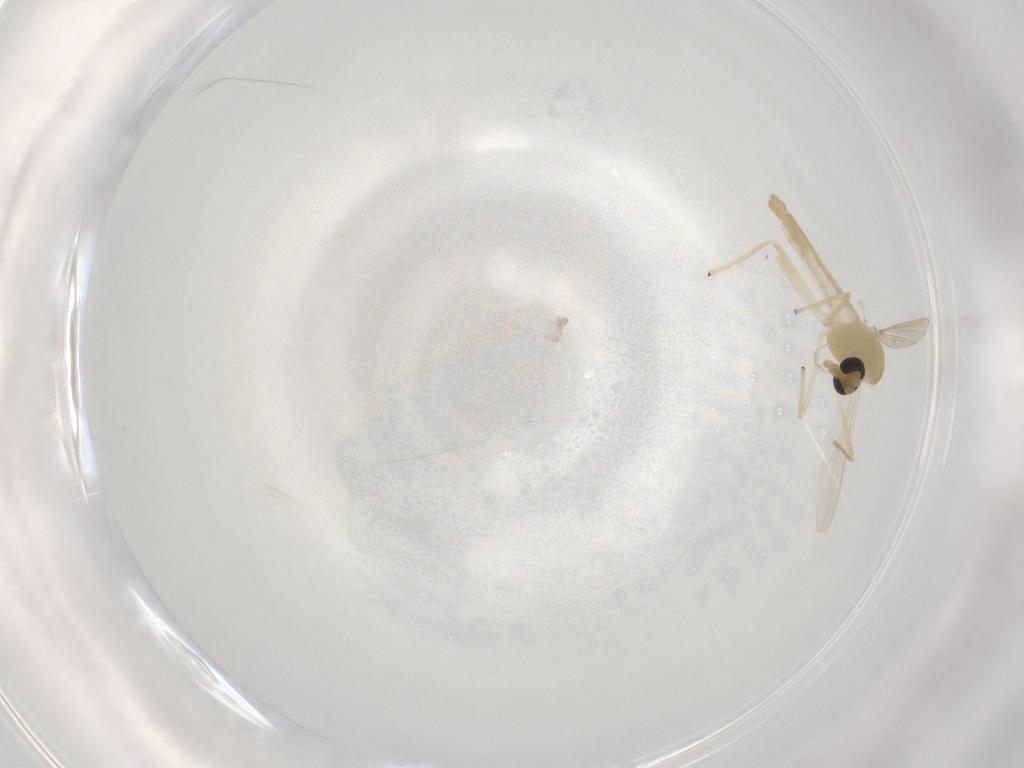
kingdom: Animalia
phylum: Arthropoda
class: Insecta
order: Diptera
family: Chironomidae
